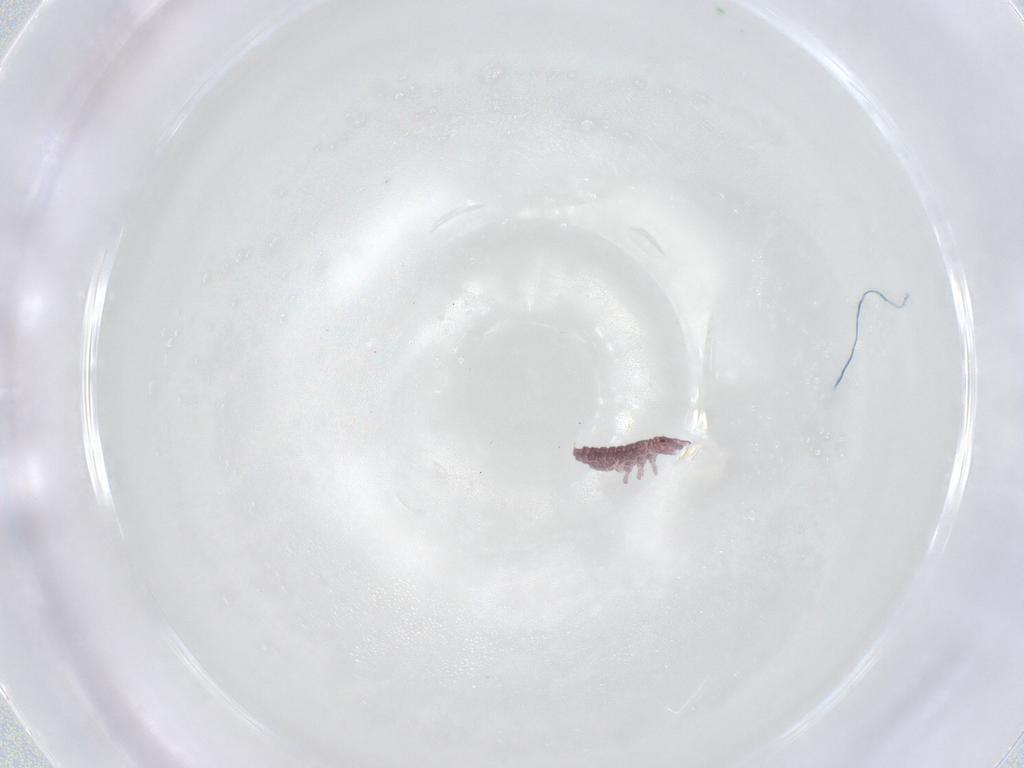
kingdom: Animalia
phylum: Arthropoda
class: Collembola
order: Poduromorpha
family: Hypogastruridae
